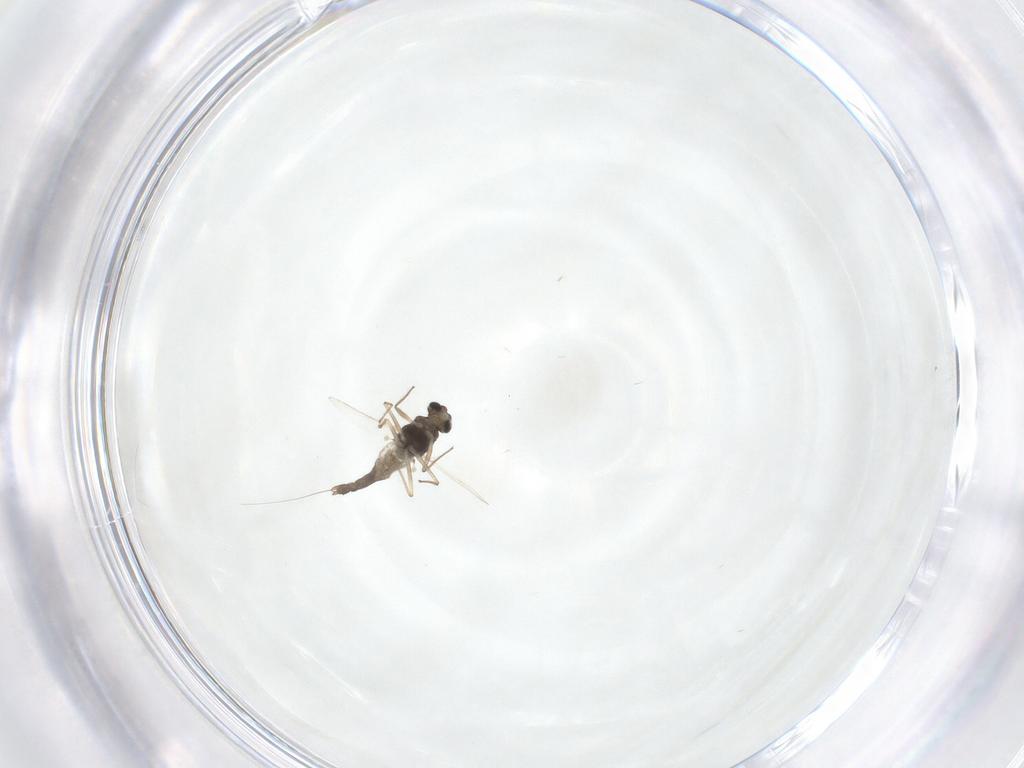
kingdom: Animalia
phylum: Arthropoda
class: Insecta
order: Diptera
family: Chironomidae
